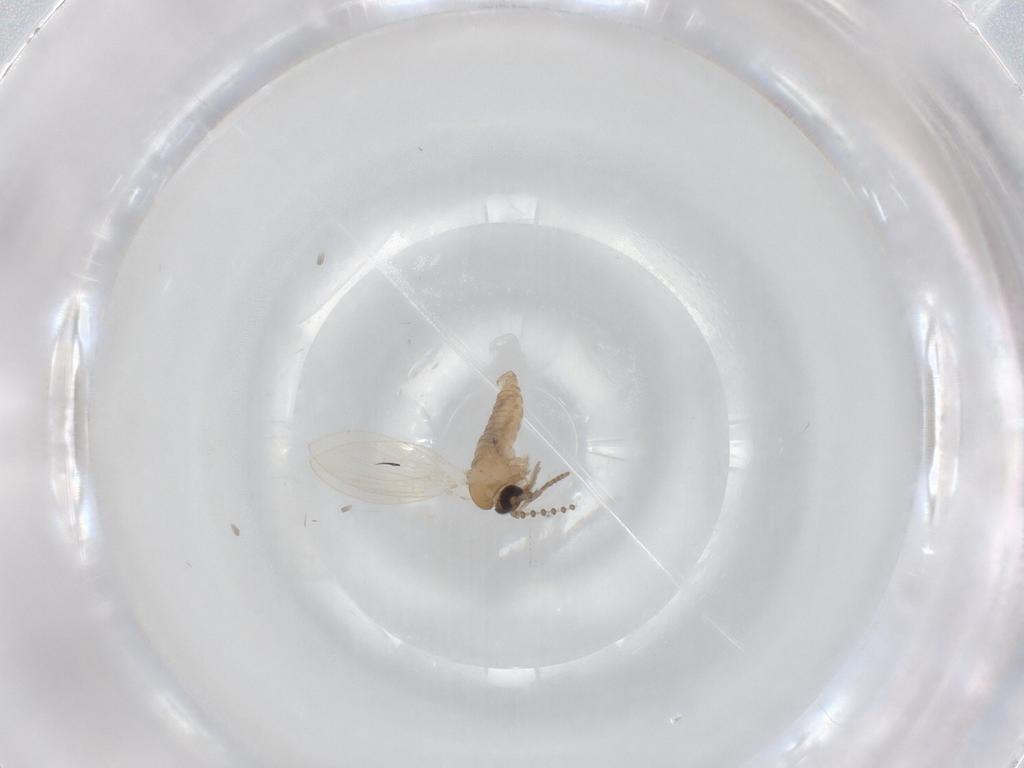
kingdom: Animalia
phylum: Arthropoda
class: Insecta
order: Diptera
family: Psychodidae
